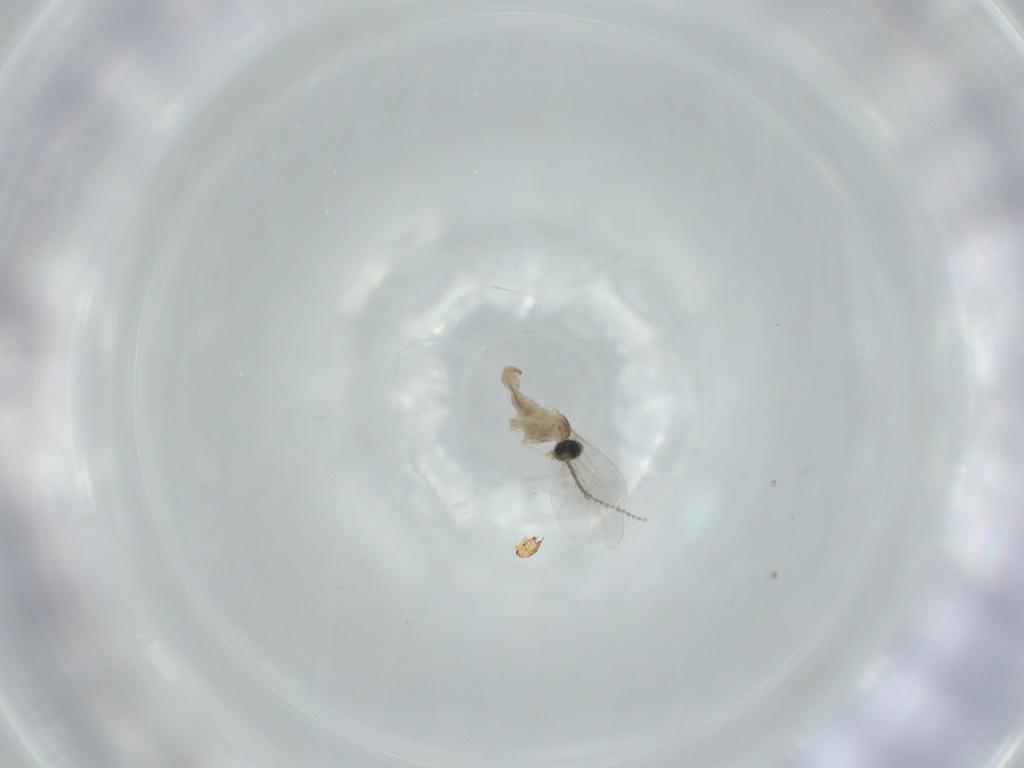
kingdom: Animalia
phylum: Arthropoda
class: Insecta
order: Diptera
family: Cecidomyiidae
